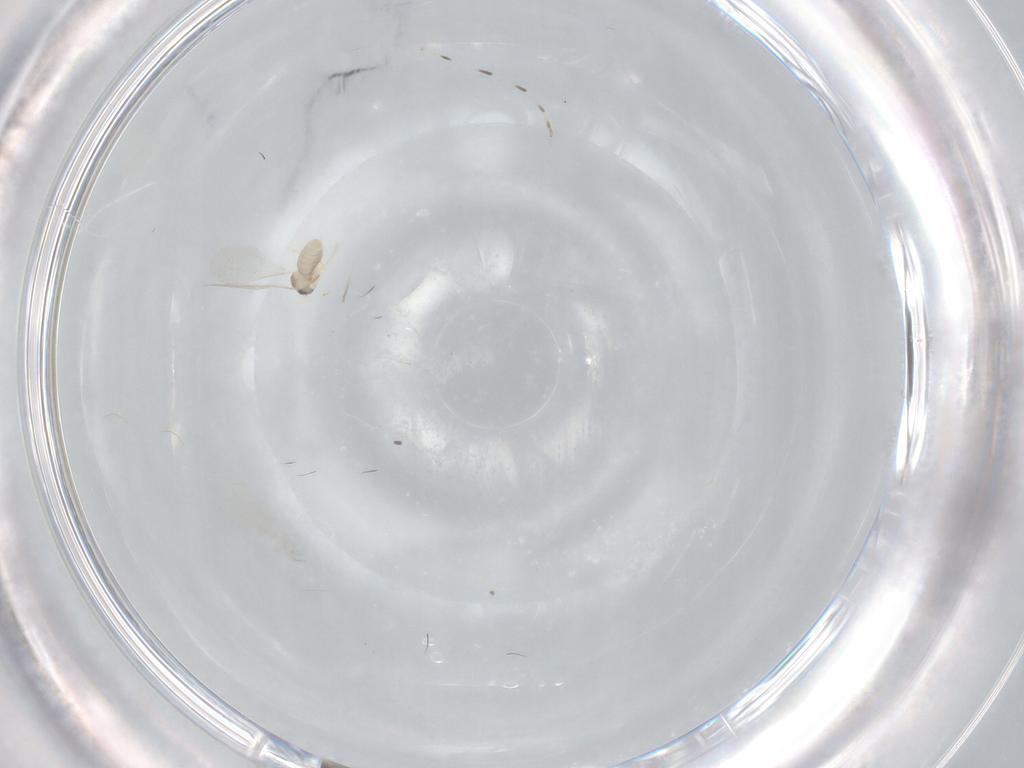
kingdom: Animalia
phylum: Arthropoda
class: Insecta
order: Diptera
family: Chironomidae
